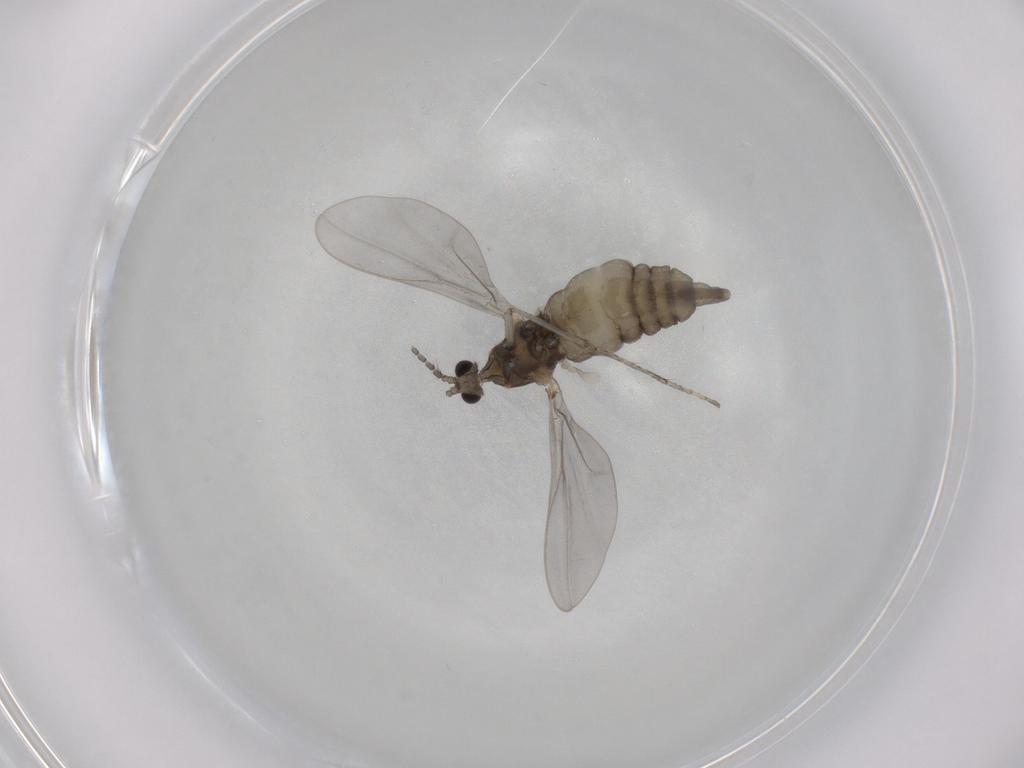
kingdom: Animalia
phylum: Arthropoda
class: Insecta
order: Diptera
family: Cecidomyiidae
